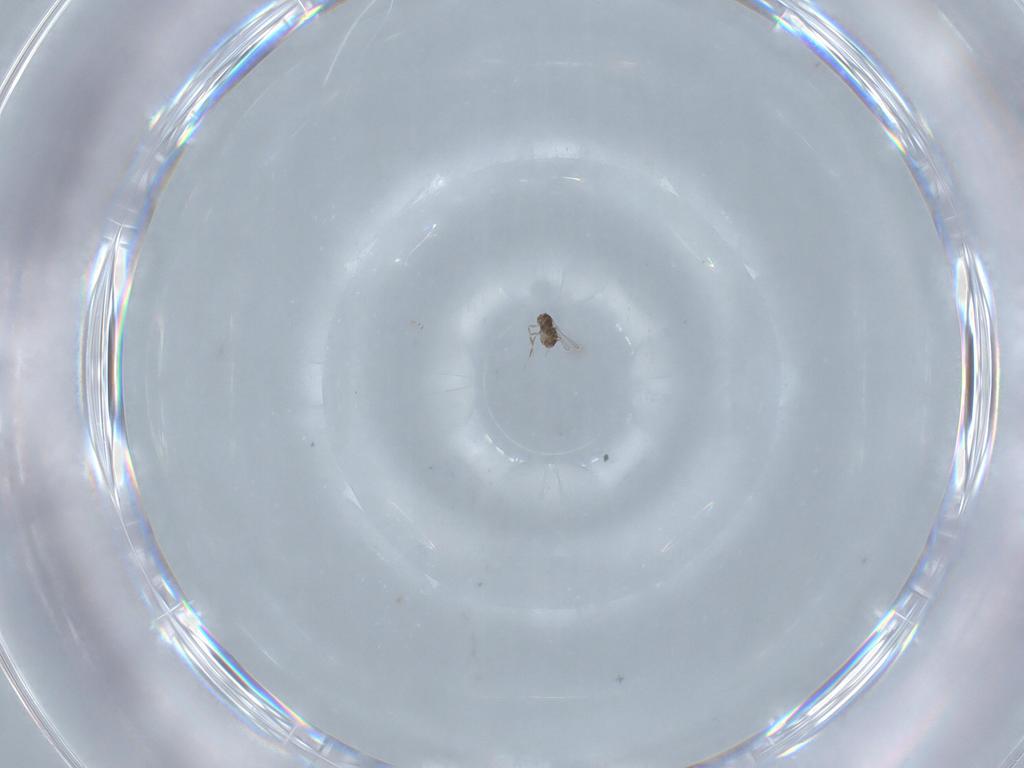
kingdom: Animalia
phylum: Arthropoda
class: Insecta
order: Hymenoptera
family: Mymaridae
